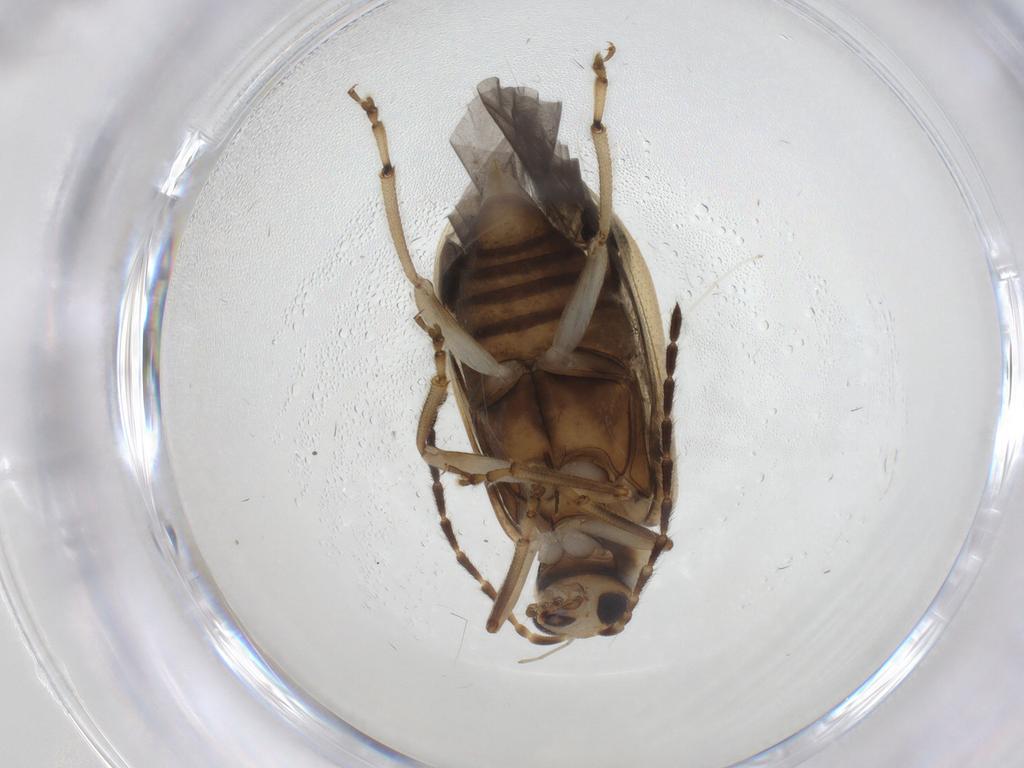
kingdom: Animalia
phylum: Arthropoda
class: Insecta
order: Coleoptera
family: Chrysomelidae
